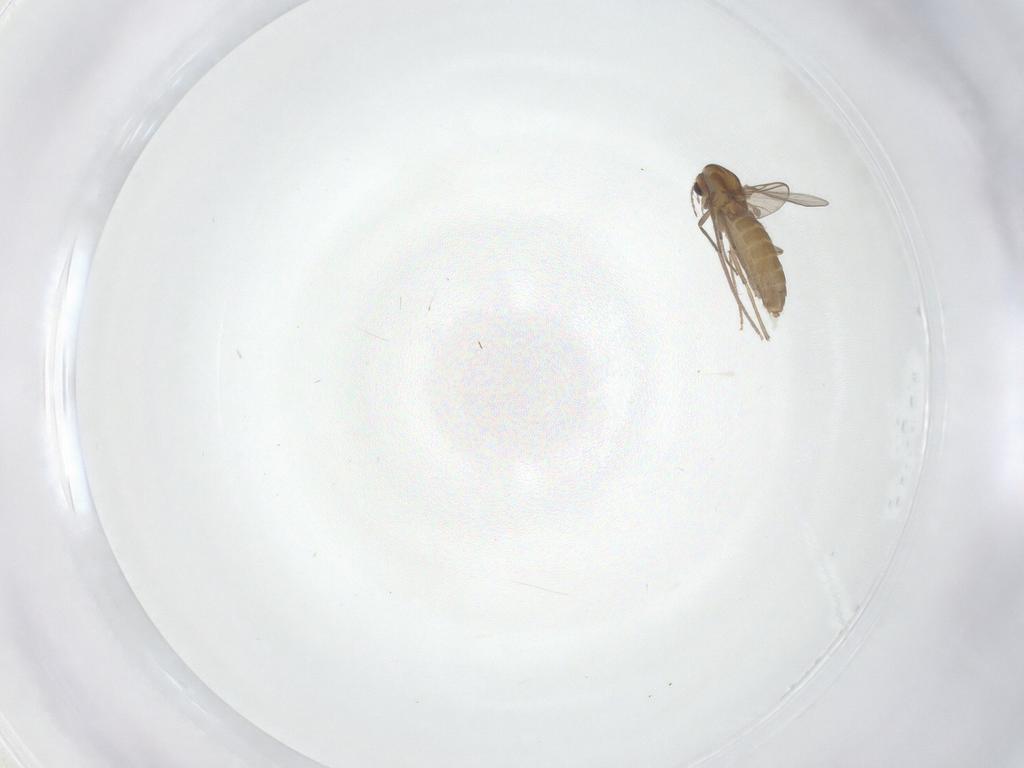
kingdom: Animalia
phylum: Arthropoda
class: Insecta
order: Diptera
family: Chironomidae
